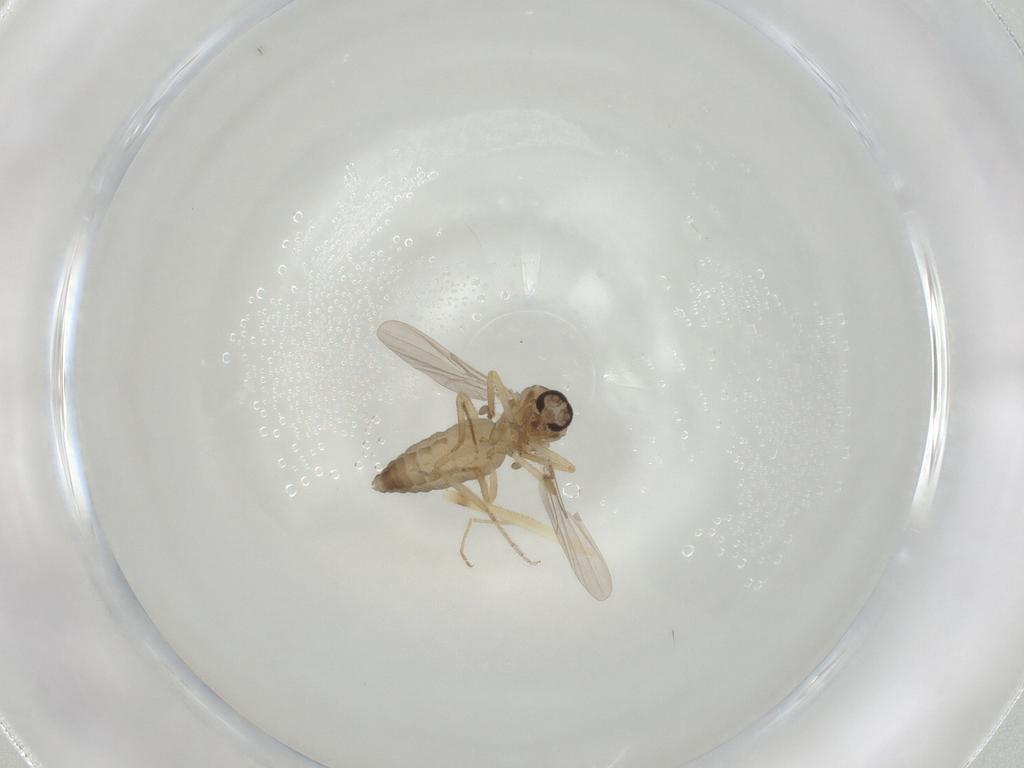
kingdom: Animalia
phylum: Arthropoda
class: Insecta
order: Diptera
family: Ceratopogonidae
